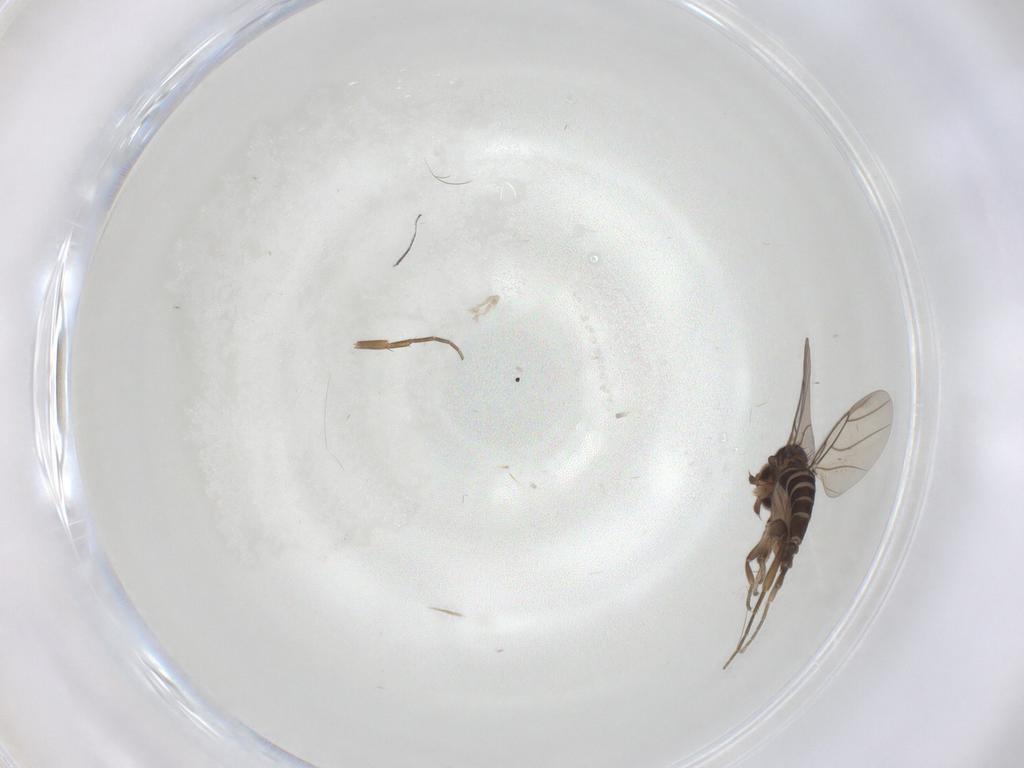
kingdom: Animalia
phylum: Arthropoda
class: Insecta
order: Diptera
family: Phoridae
